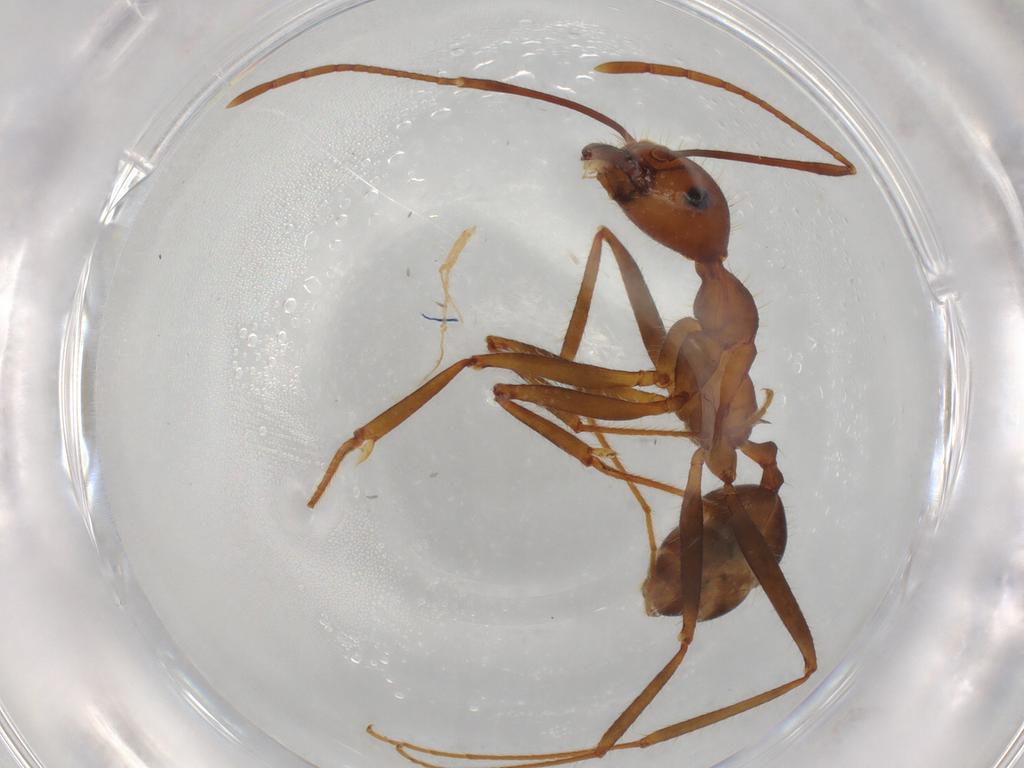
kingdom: Animalia
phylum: Arthropoda
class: Insecta
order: Hymenoptera
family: Formicidae
